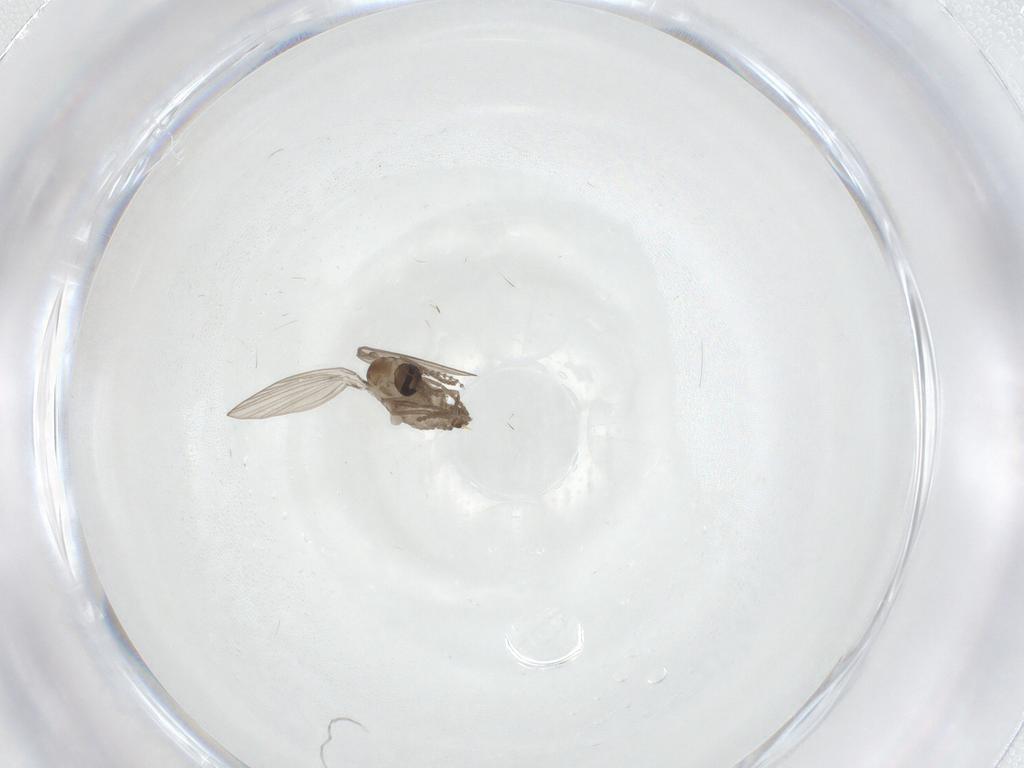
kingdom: Animalia
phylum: Arthropoda
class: Insecta
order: Diptera
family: Psychodidae
